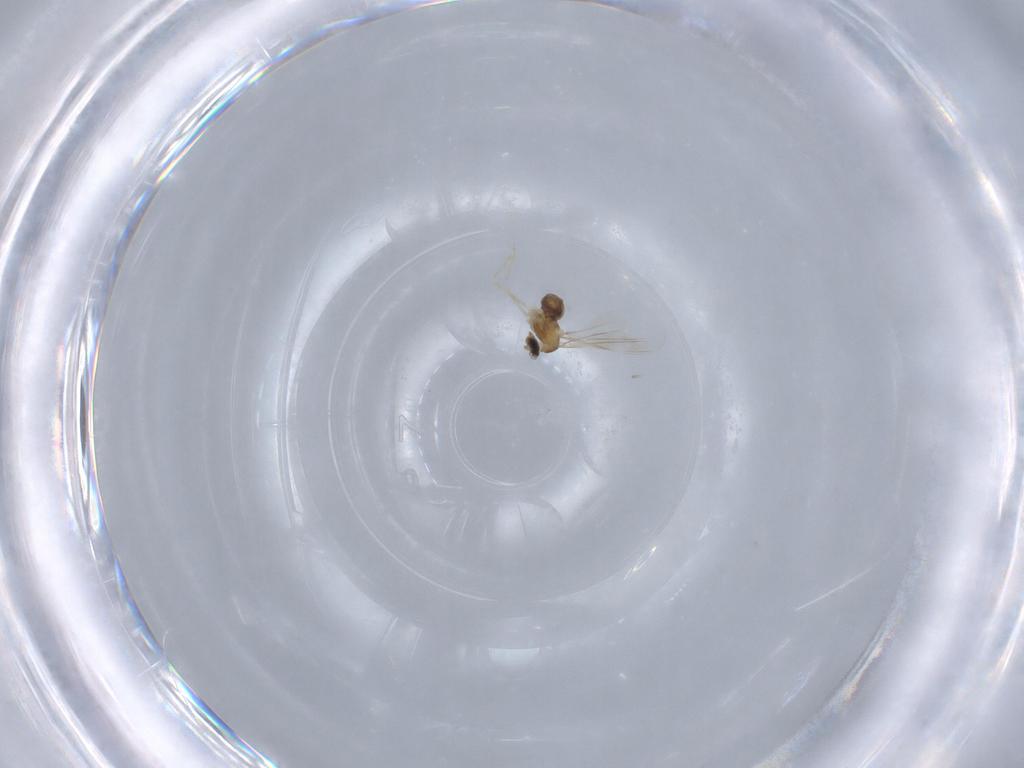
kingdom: Animalia
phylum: Arthropoda
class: Insecta
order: Diptera
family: Cecidomyiidae
